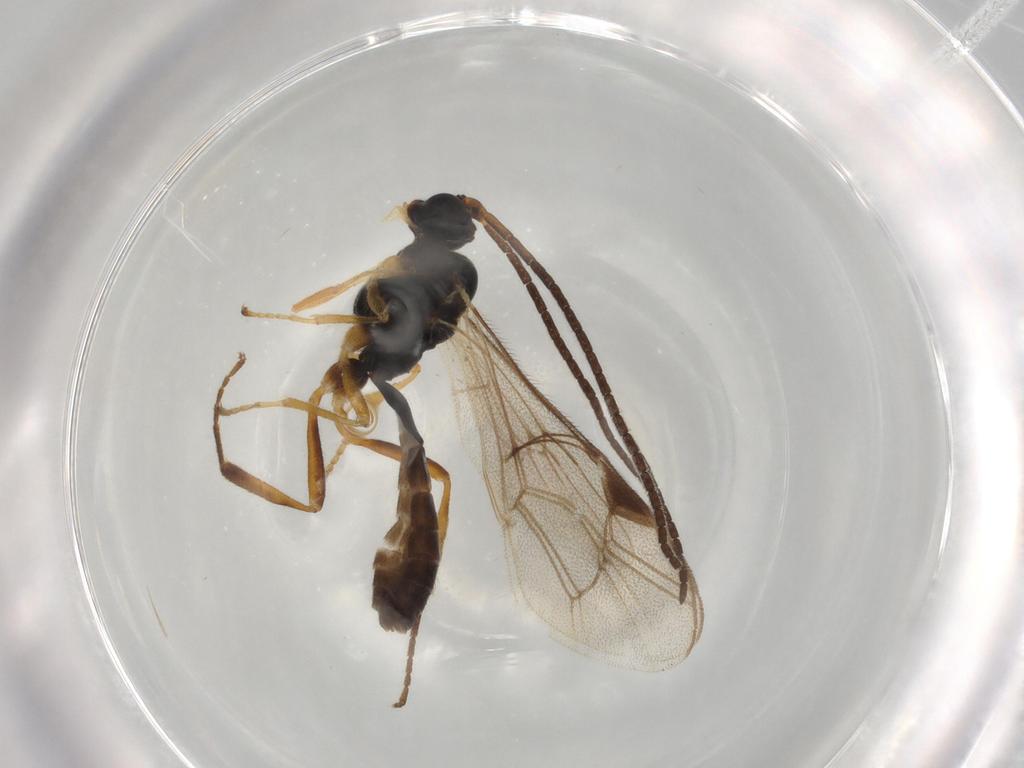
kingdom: Animalia
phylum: Arthropoda
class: Insecta
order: Hymenoptera
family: Ichneumonidae
